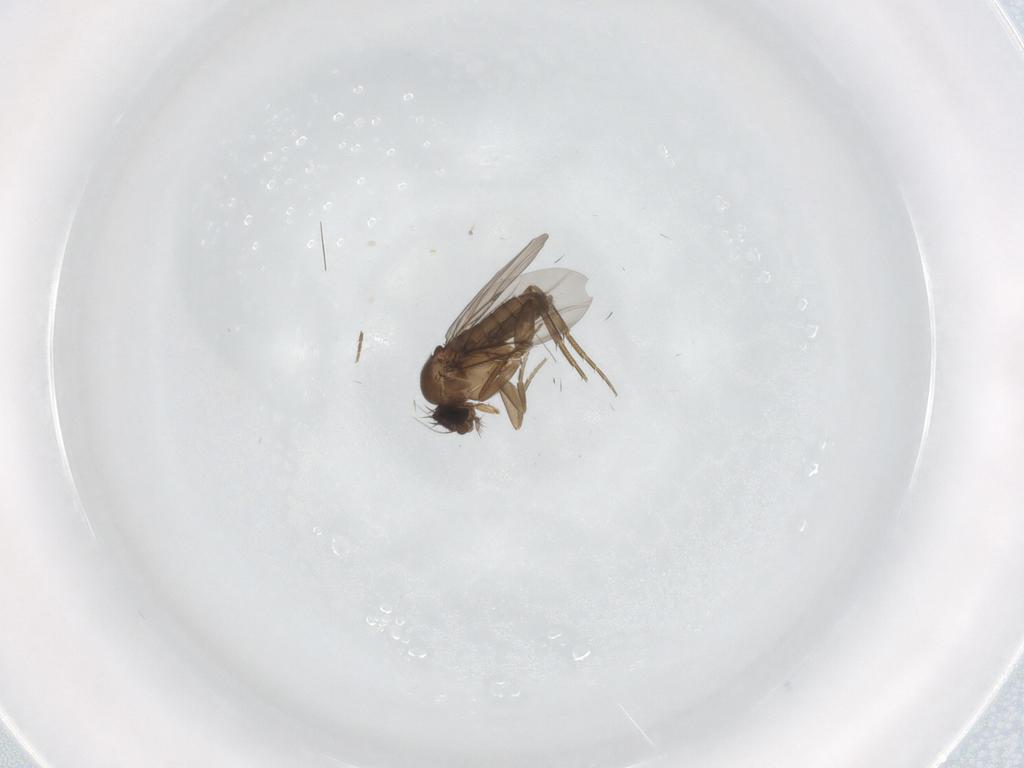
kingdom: Animalia
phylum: Arthropoda
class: Insecta
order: Diptera
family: Phoridae
